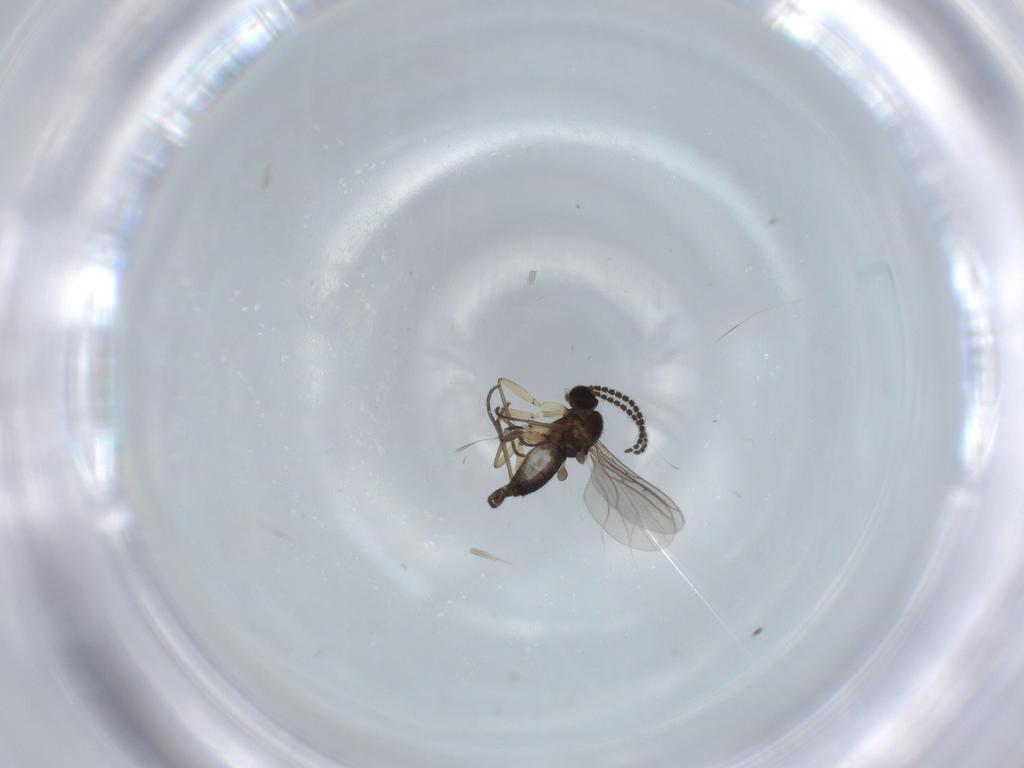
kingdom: Animalia
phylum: Arthropoda
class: Insecta
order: Diptera
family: Sciaridae
